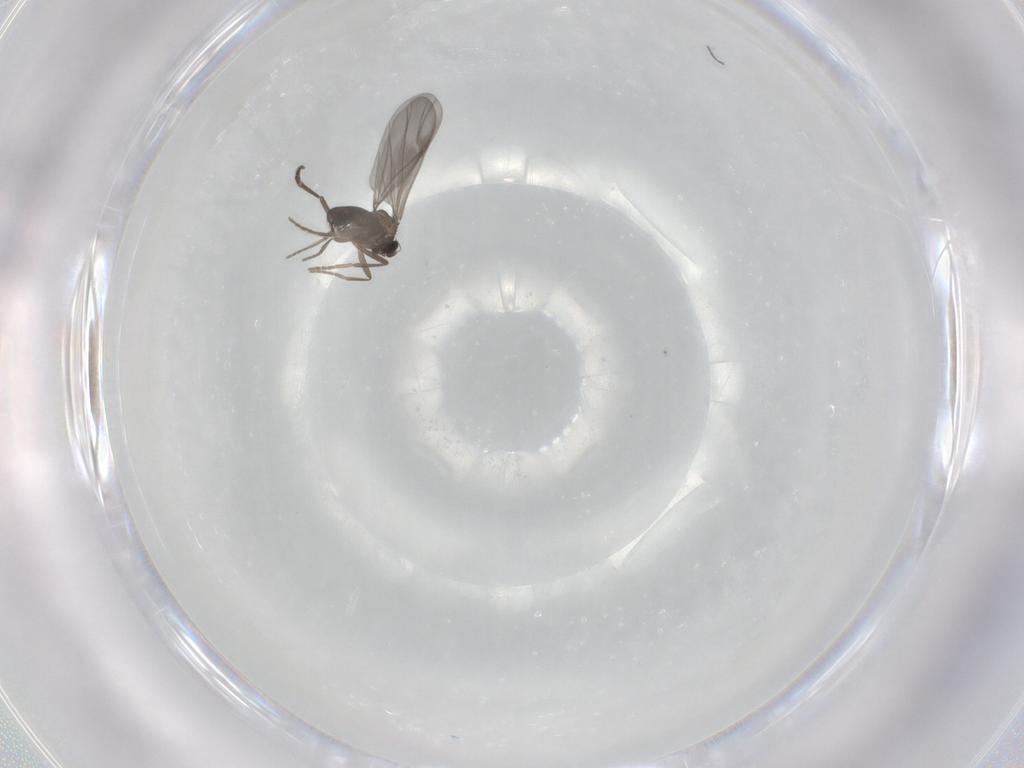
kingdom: Animalia
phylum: Arthropoda
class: Insecta
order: Diptera
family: Phoridae
